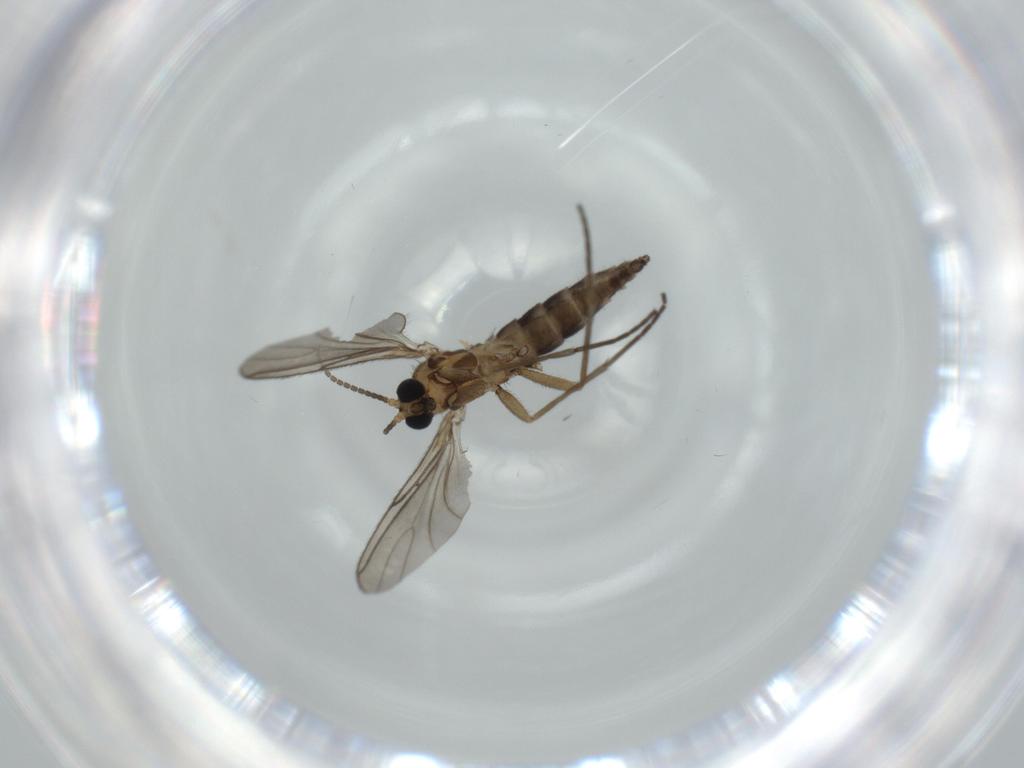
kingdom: Animalia
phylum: Arthropoda
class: Insecta
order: Diptera
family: Sciaridae
